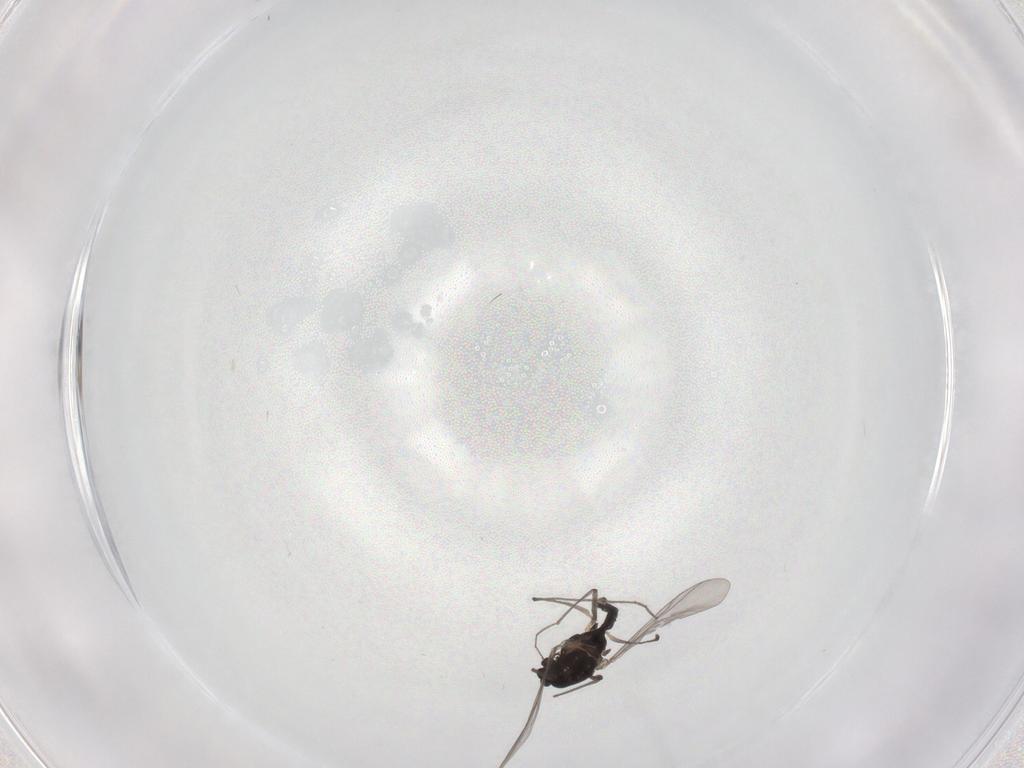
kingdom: Animalia
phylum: Arthropoda
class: Insecta
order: Diptera
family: Chironomidae
